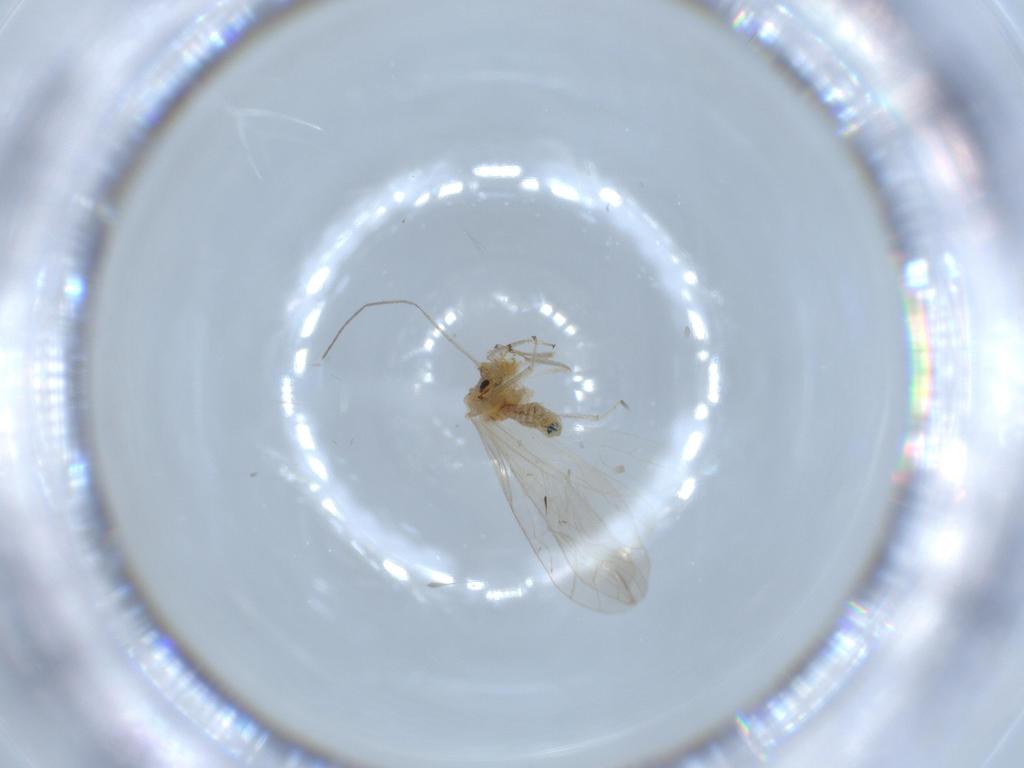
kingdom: Animalia
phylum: Arthropoda
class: Insecta
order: Psocodea
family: Caeciliusidae
